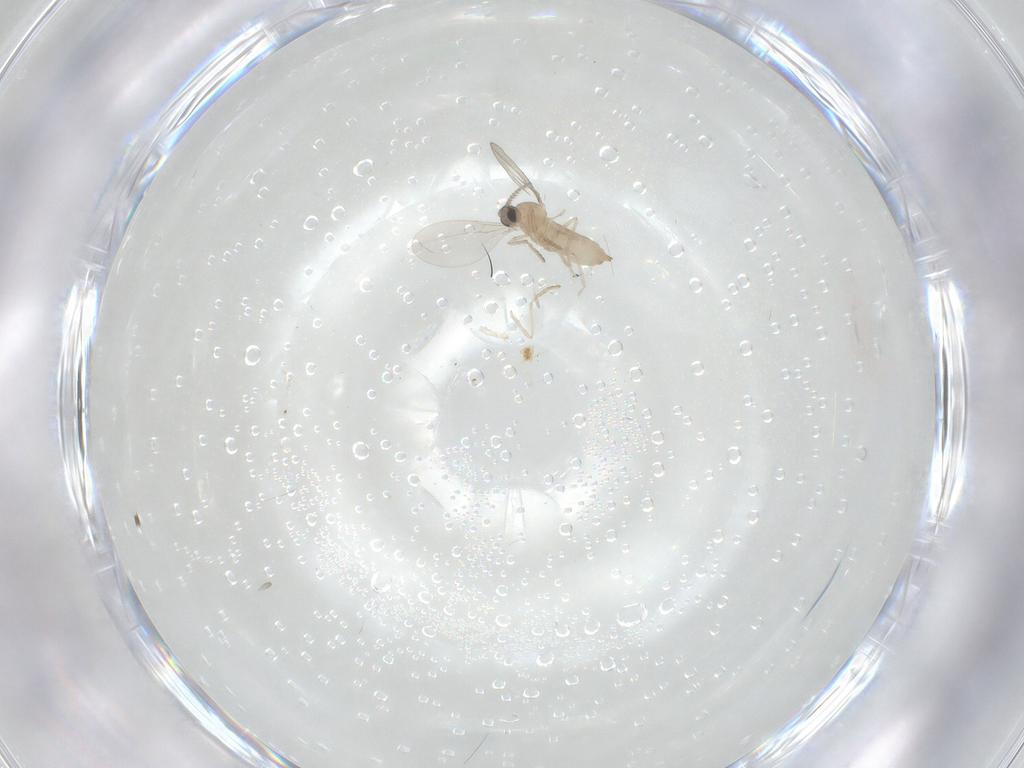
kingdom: Animalia
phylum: Arthropoda
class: Insecta
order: Diptera
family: Cecidomyiidae
